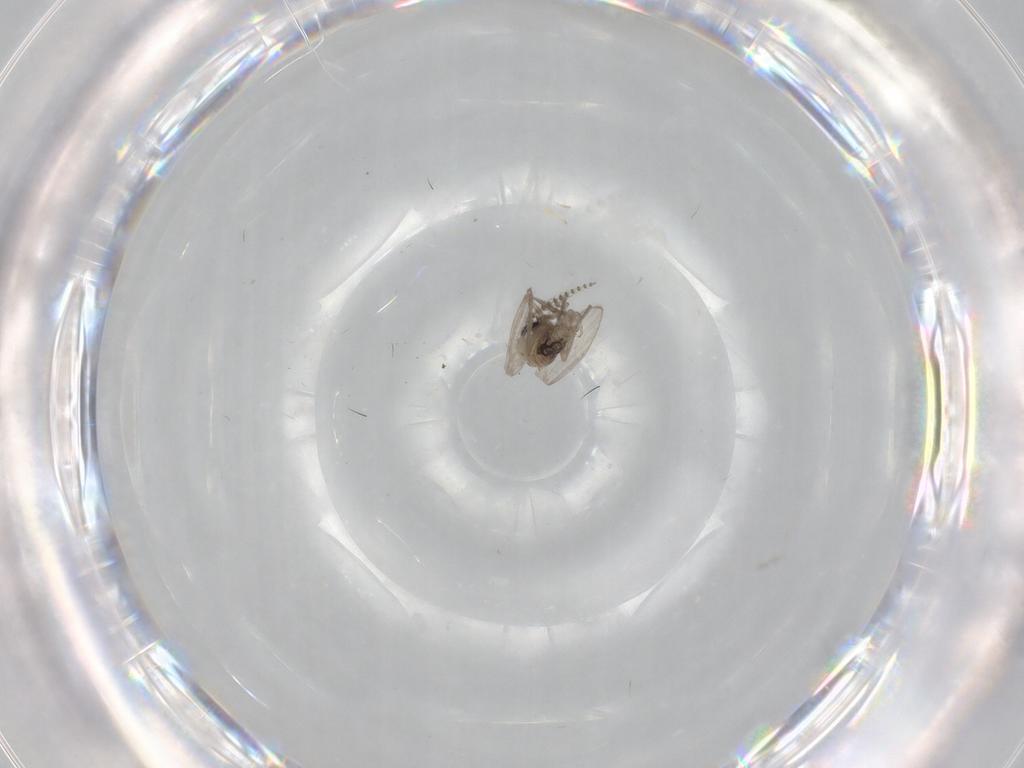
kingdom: Animalia
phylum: Arthropoda
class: Insecta
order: Diptera
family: Psychodidae
